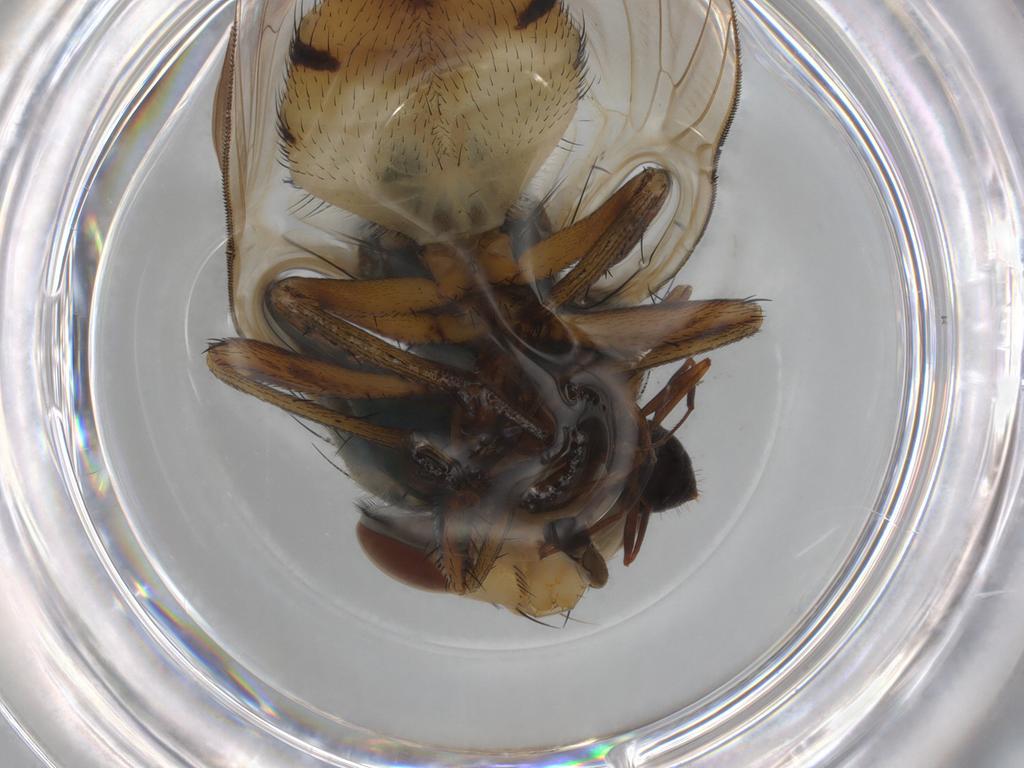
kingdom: Animalia
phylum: Arthropoda
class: Insecta
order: Diptera
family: Calliphoridae
